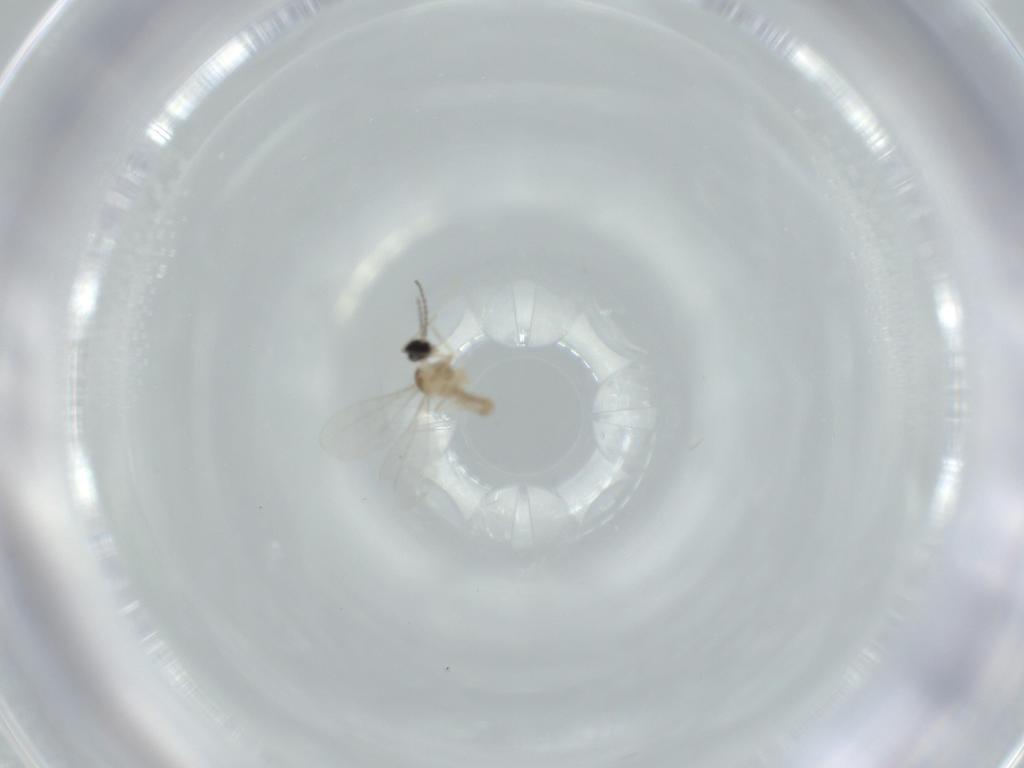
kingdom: Animalia
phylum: Arthropoda
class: Insecta
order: Diptera
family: Cecidomyiidae
